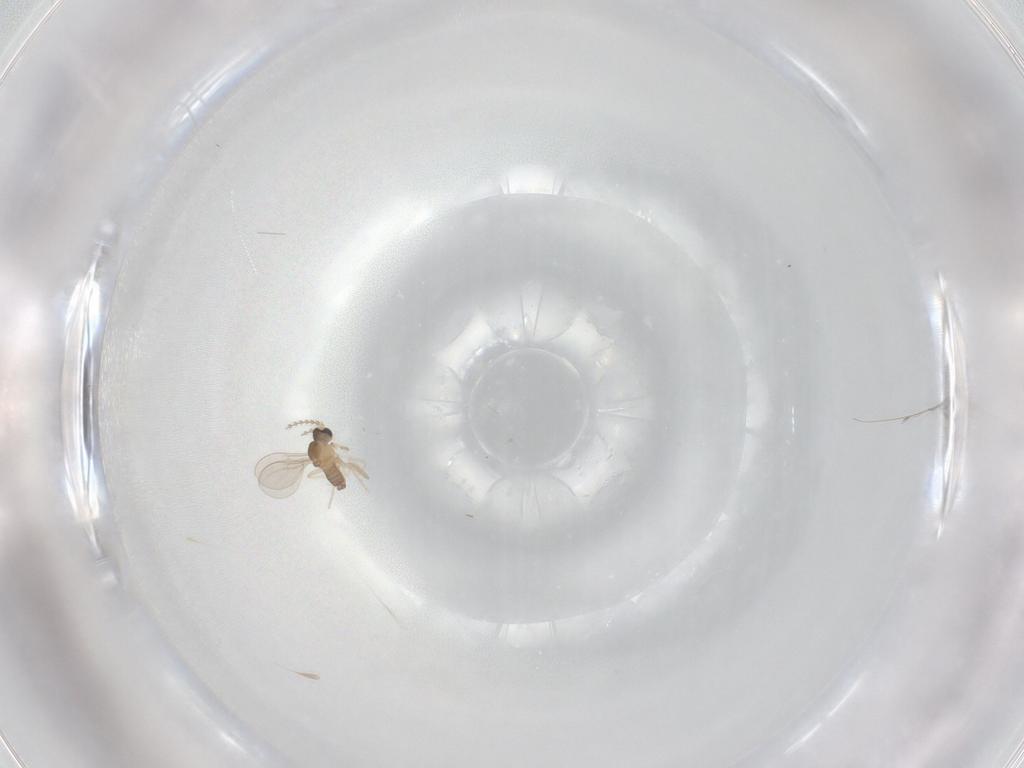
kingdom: Animalia
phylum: Arthropoda
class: Insecta
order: Diptera
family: Cecidomyiidae
